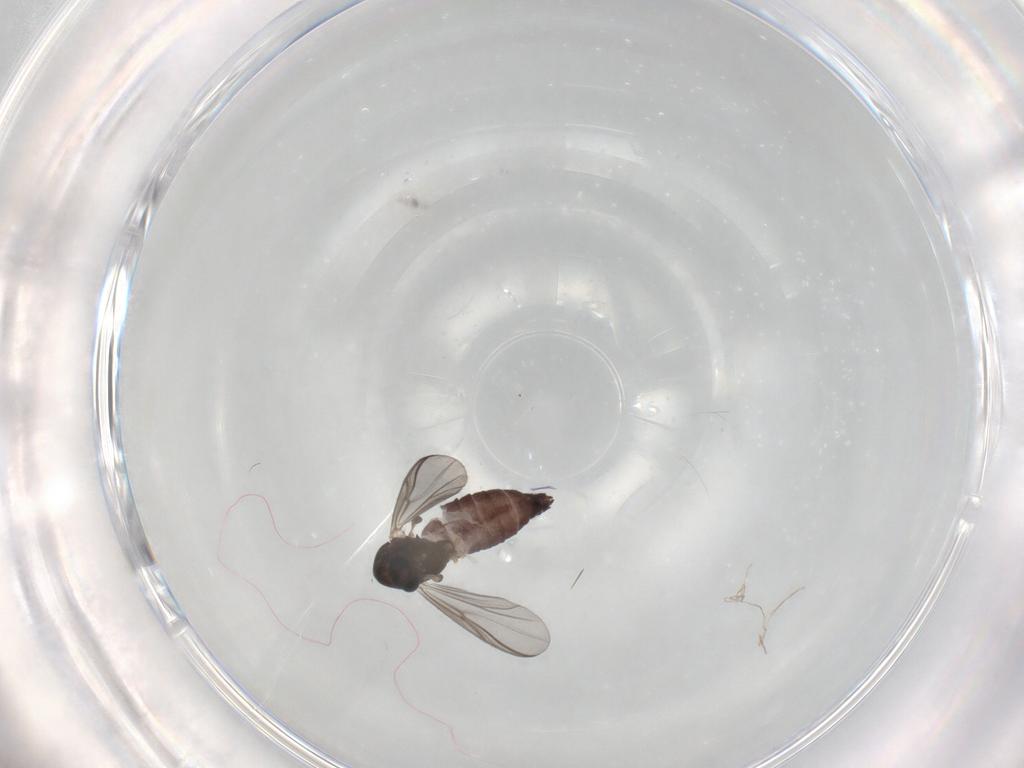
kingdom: Animalia
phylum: Arthropoda
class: Insecta
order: Diptera
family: Chironomidae
